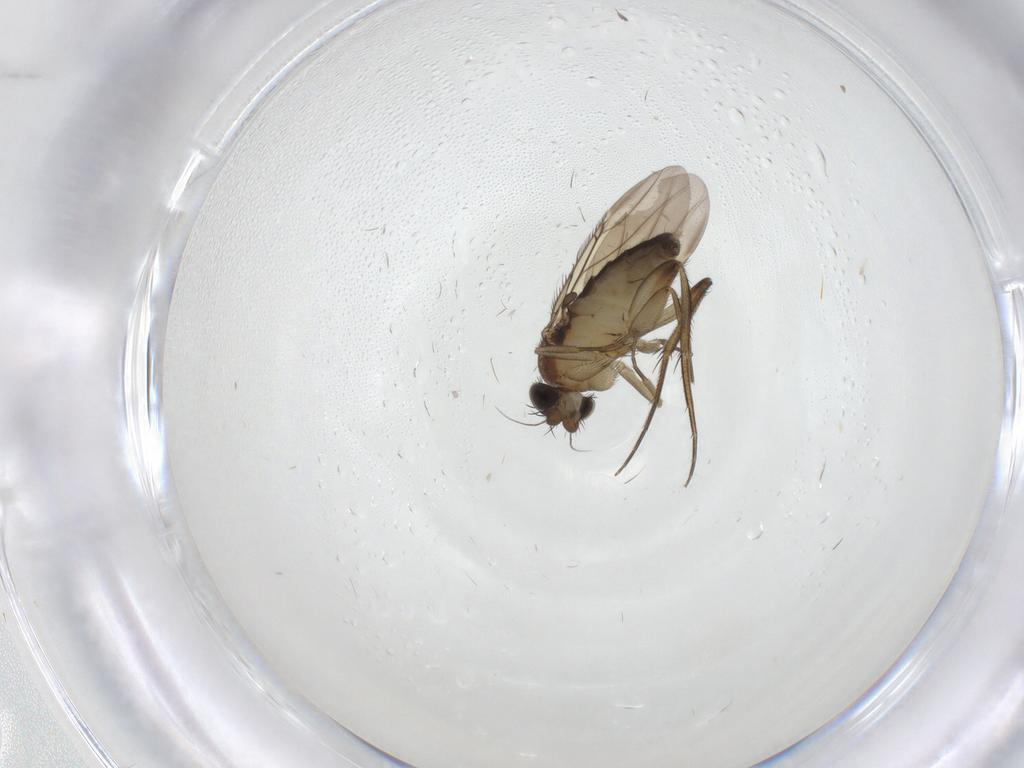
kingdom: Animalia
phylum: Arthropoda
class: Insecta
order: Diptera
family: Phoridae
